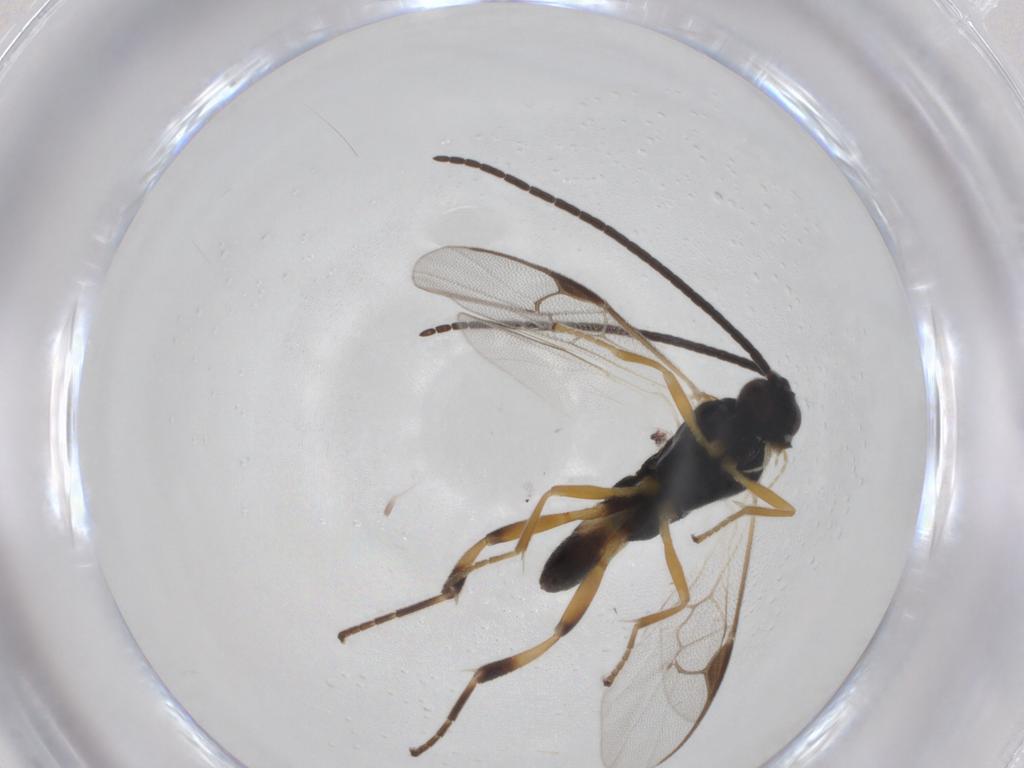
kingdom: Animalia
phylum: Arthropoda
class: Insecta
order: Hymenoptera
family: Braconidae
